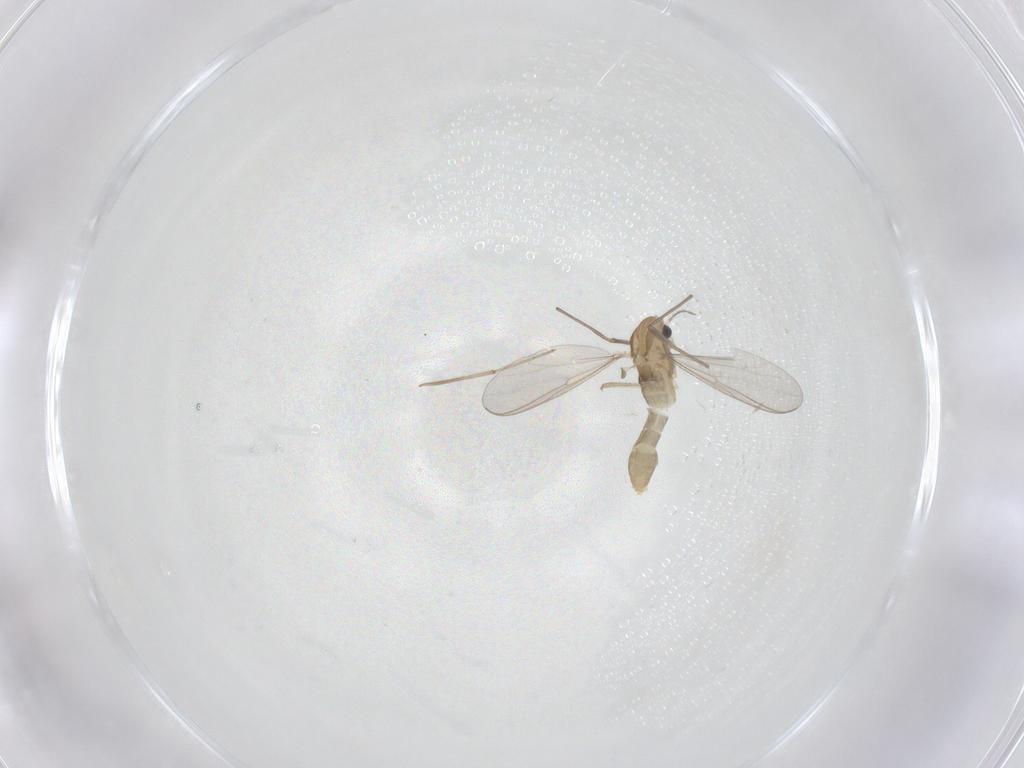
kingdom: Animalia
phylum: Arthropoda
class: Insecta
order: Diptera
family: Chironomidae
